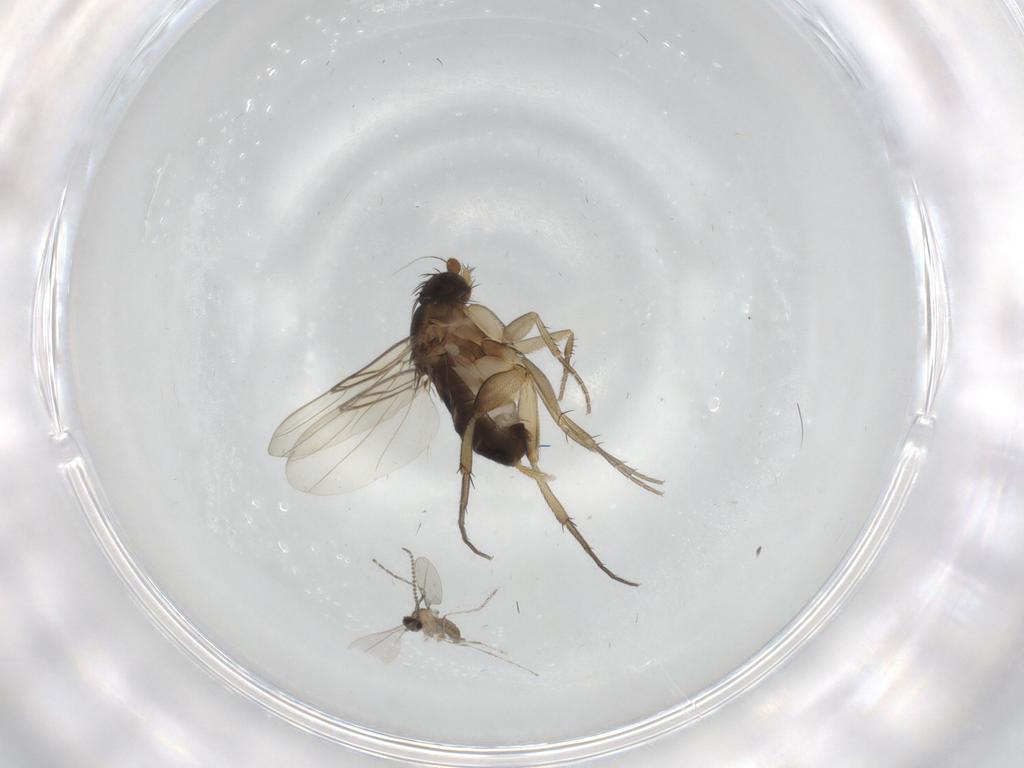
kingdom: Animalia
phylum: Arthropoda
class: Insecta
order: Diptera
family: Phoridae
